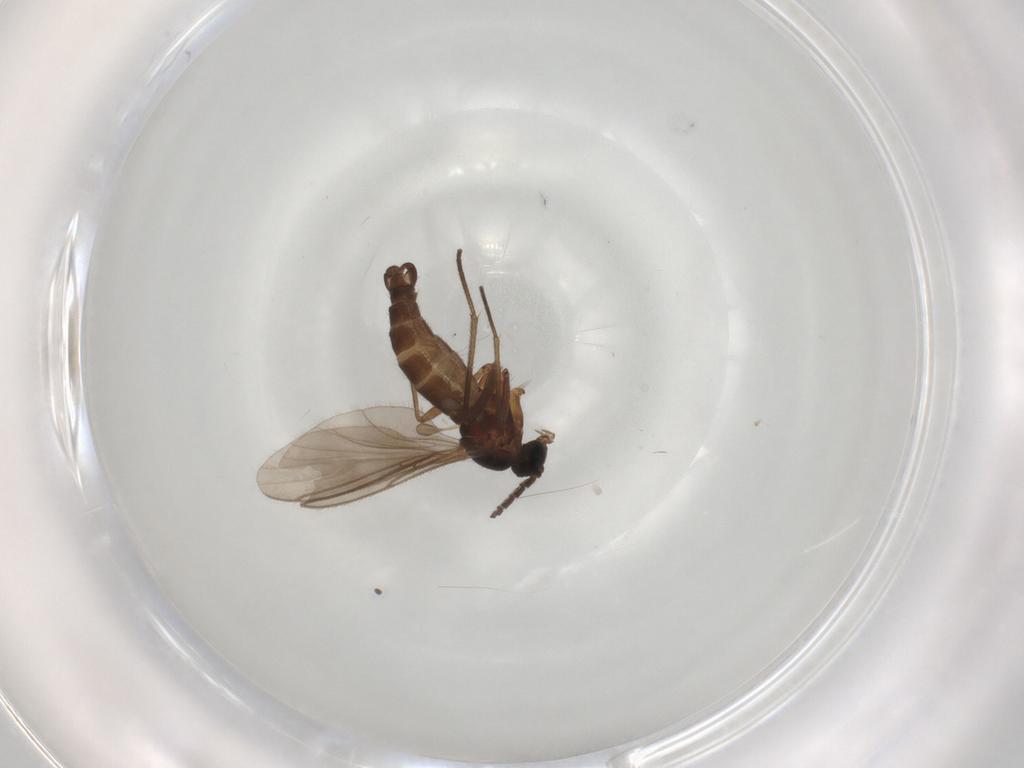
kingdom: Animalia
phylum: Arthropoda
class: Insecta
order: Diptera
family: Sciaridae
